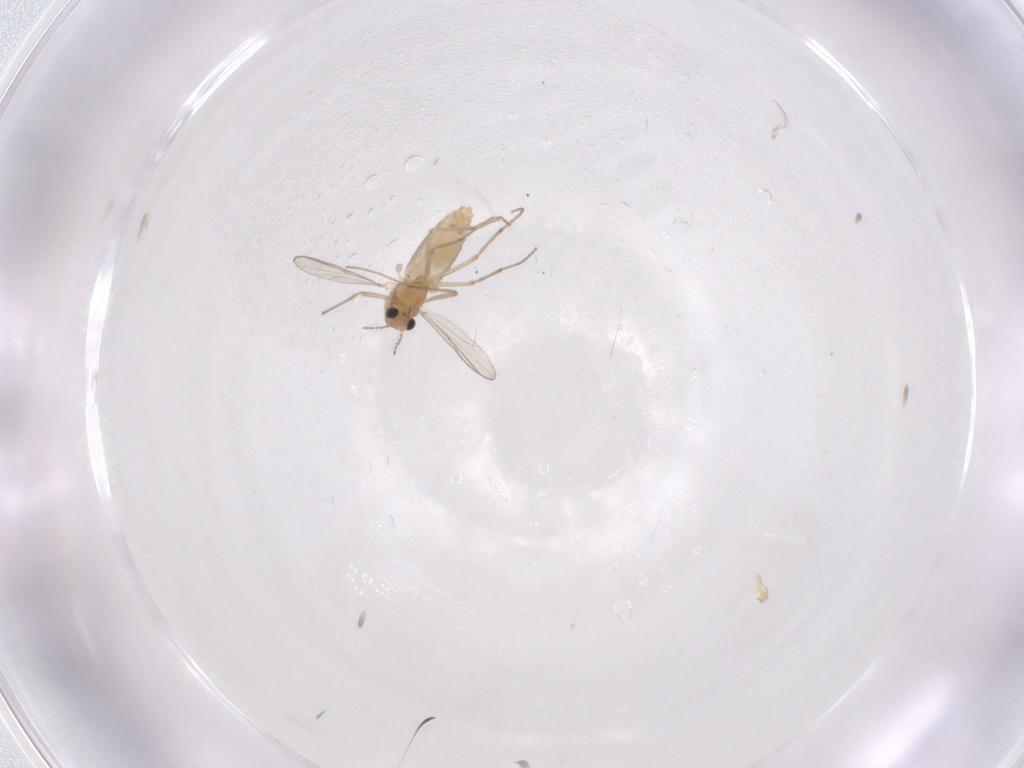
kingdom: Animalia
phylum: Arthropoda
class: Insecta
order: Diptera
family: Chironomidae
